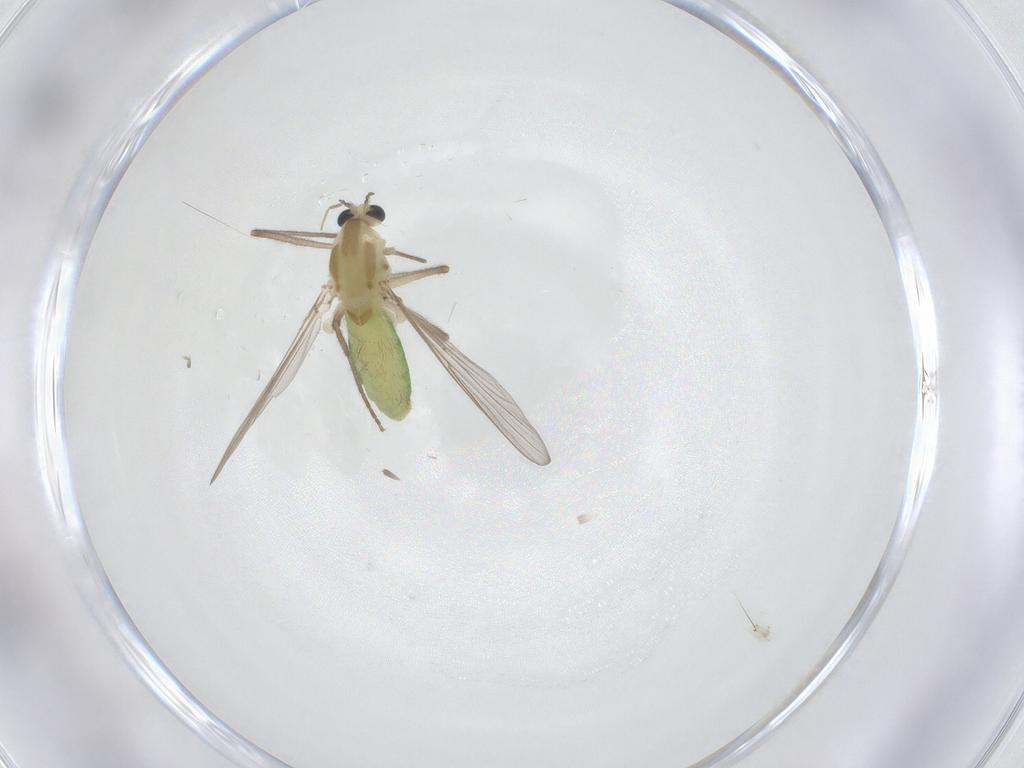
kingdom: Animalia
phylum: Arthropoda
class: Insecta
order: Diptera
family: Chironomidae
